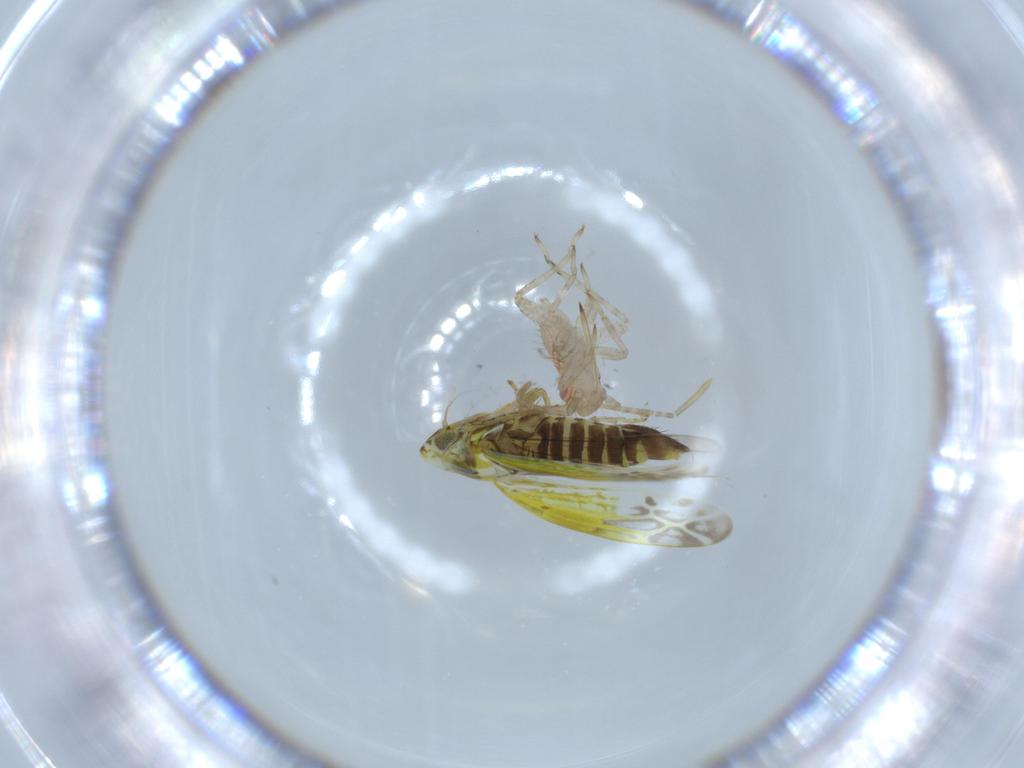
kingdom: Animalia
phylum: Arthropoda
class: Insecta
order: Hemiptera
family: Miridae
